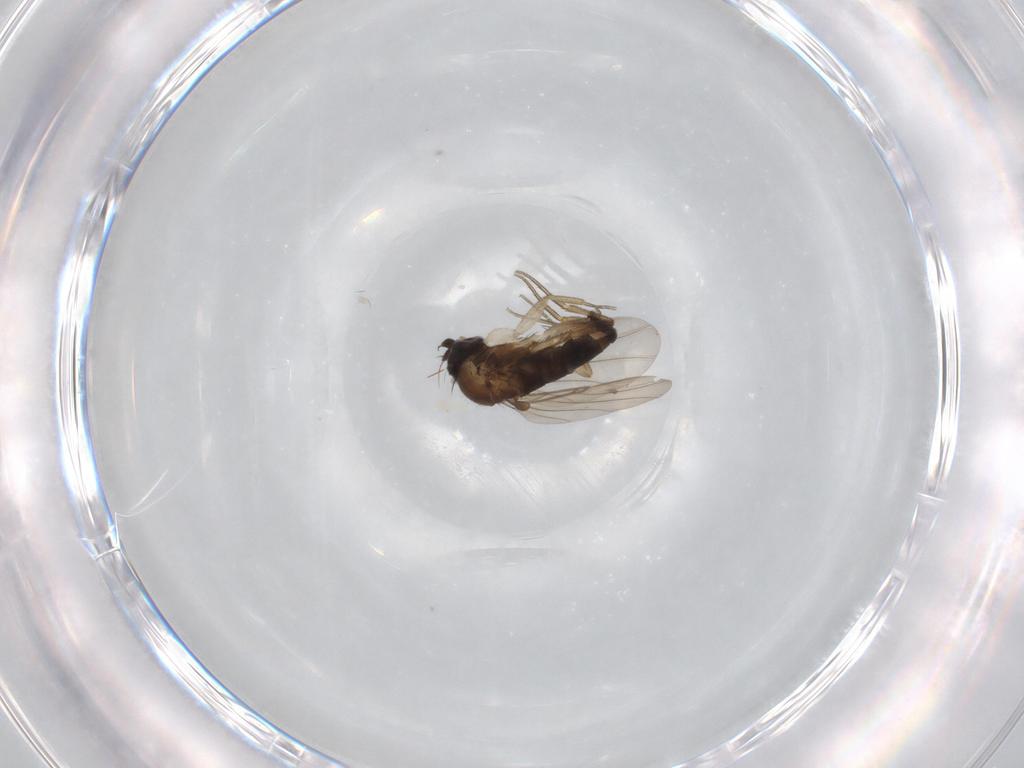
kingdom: Animalia
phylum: Arthropoda
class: Insecta
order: Diptera
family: Phoridae
